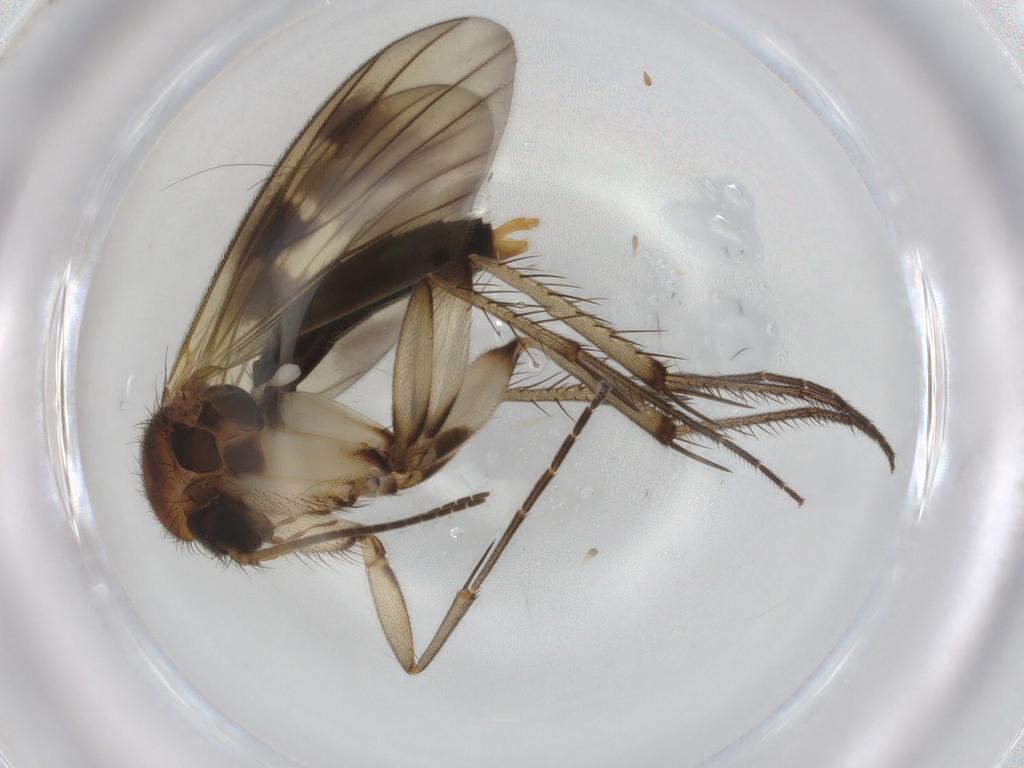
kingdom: Animalia
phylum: Arthropoda
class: Insecta
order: Diptera
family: Mycetophilidae
